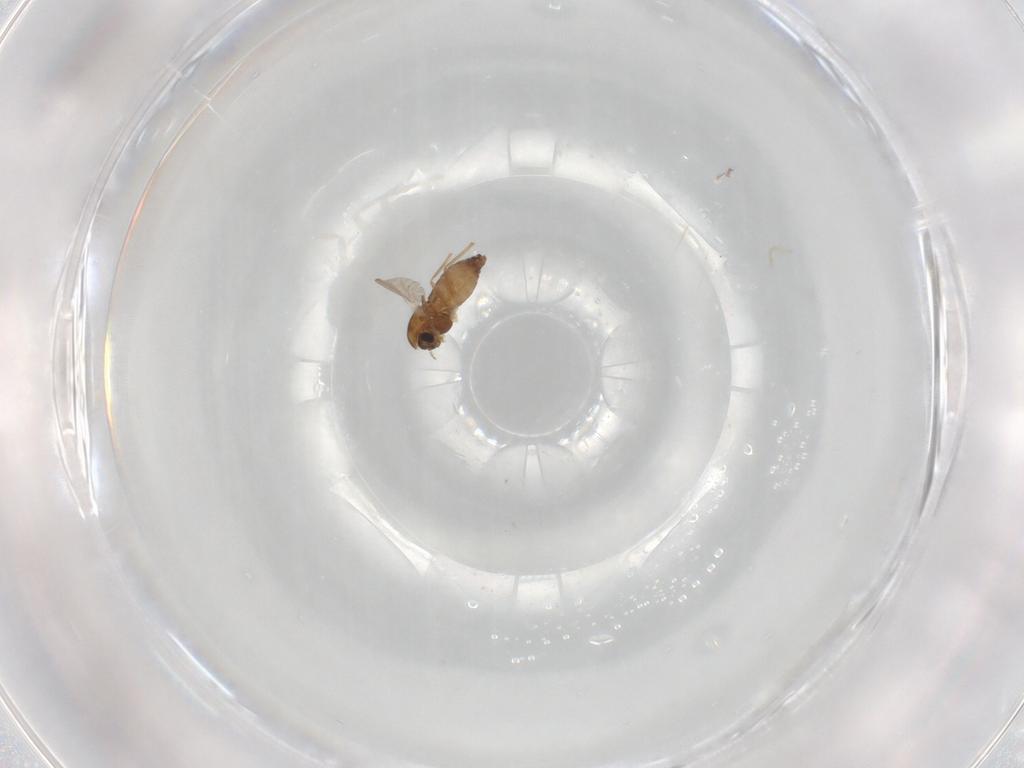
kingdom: Animalia
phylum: Arthropoda
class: Insecta
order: Diptera
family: Chironomidae
